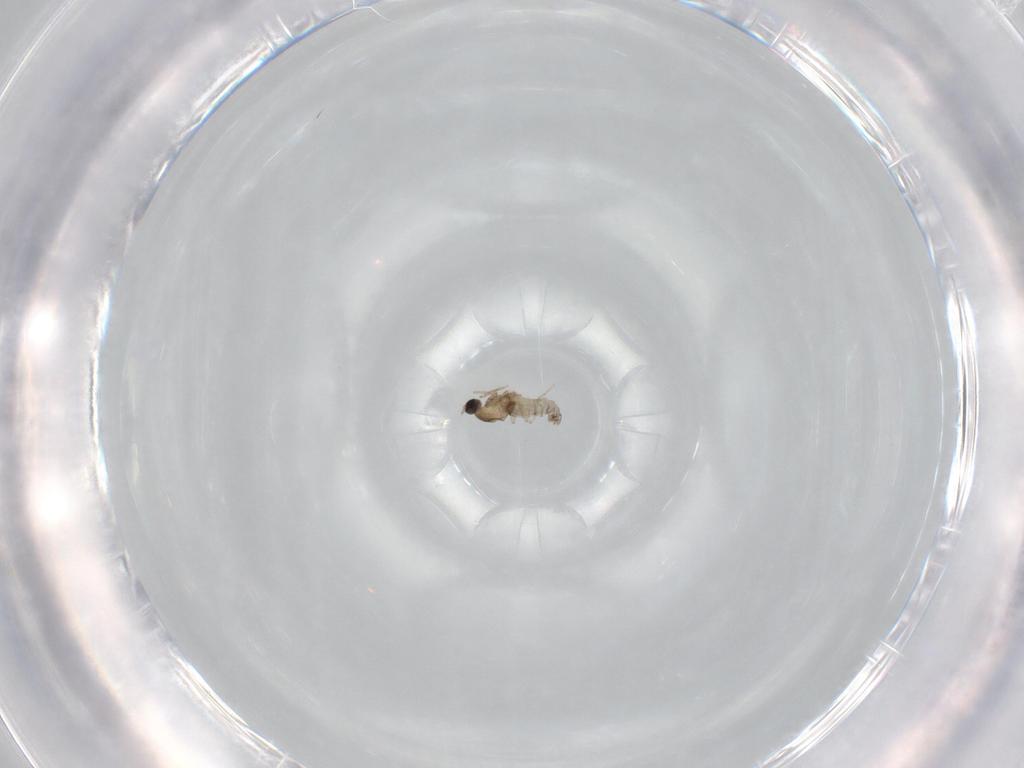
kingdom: Animalia
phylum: Arthropoda
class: Insecta
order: Diptera
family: Cecidomyiidae
